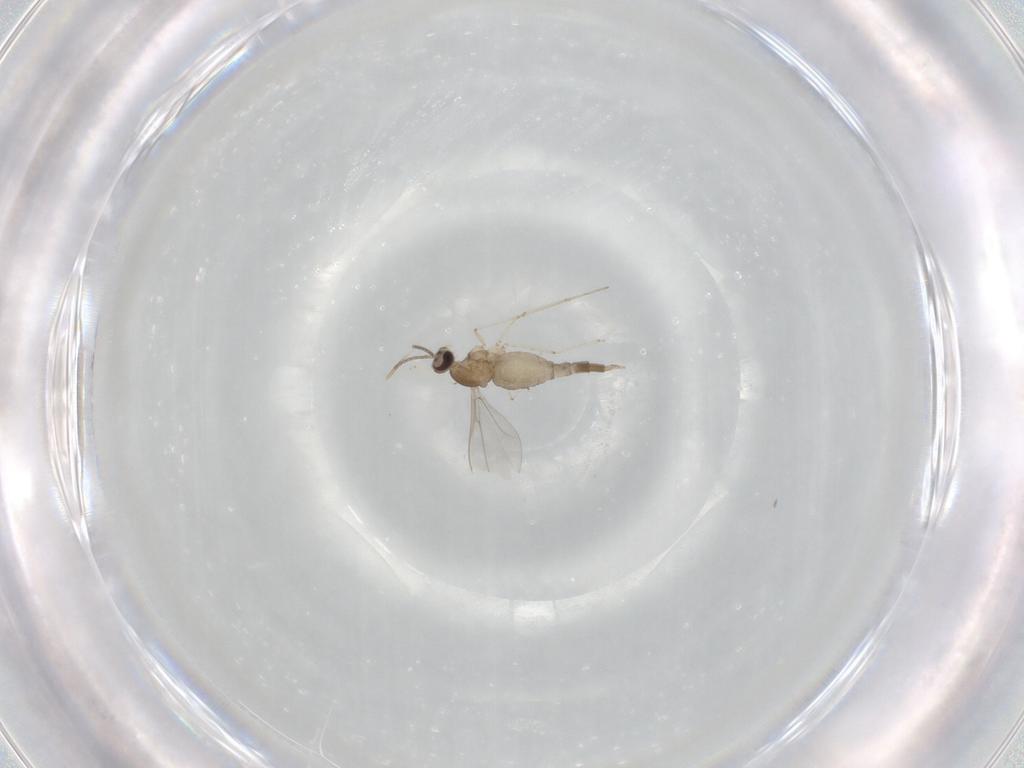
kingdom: Animalia
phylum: Arthropoda
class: Insecta
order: Diptera
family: Cecidomyiidae
